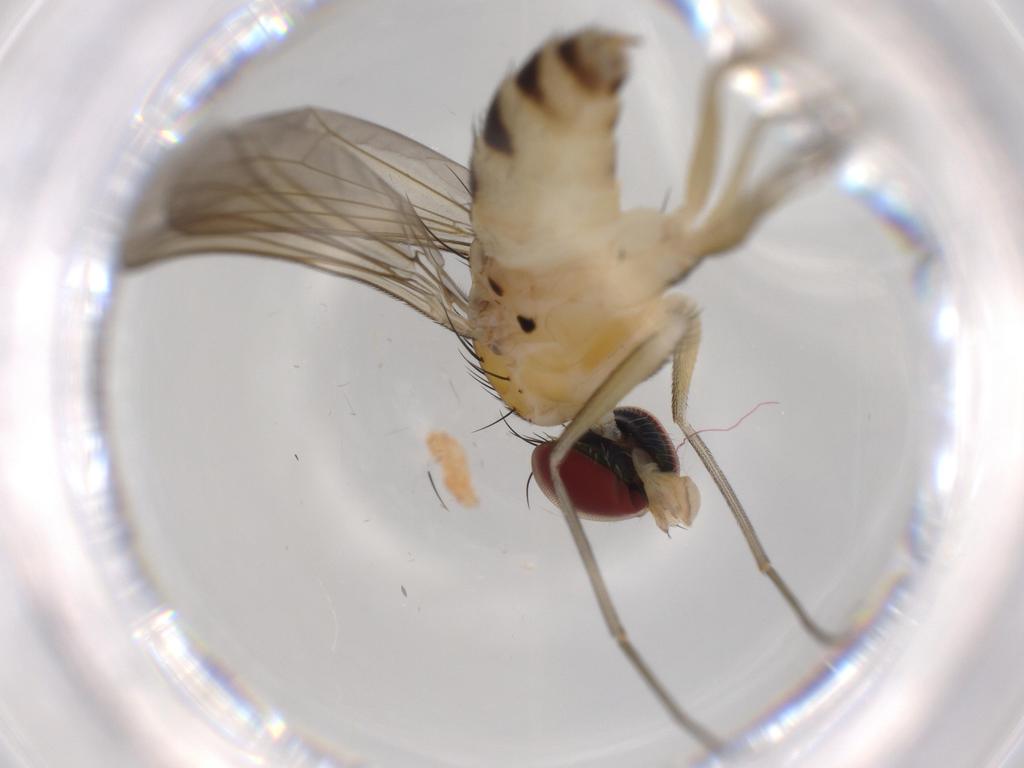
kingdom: Animalia
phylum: Arthropoda
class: Insecta
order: Diptera
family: Dolichopodidae
